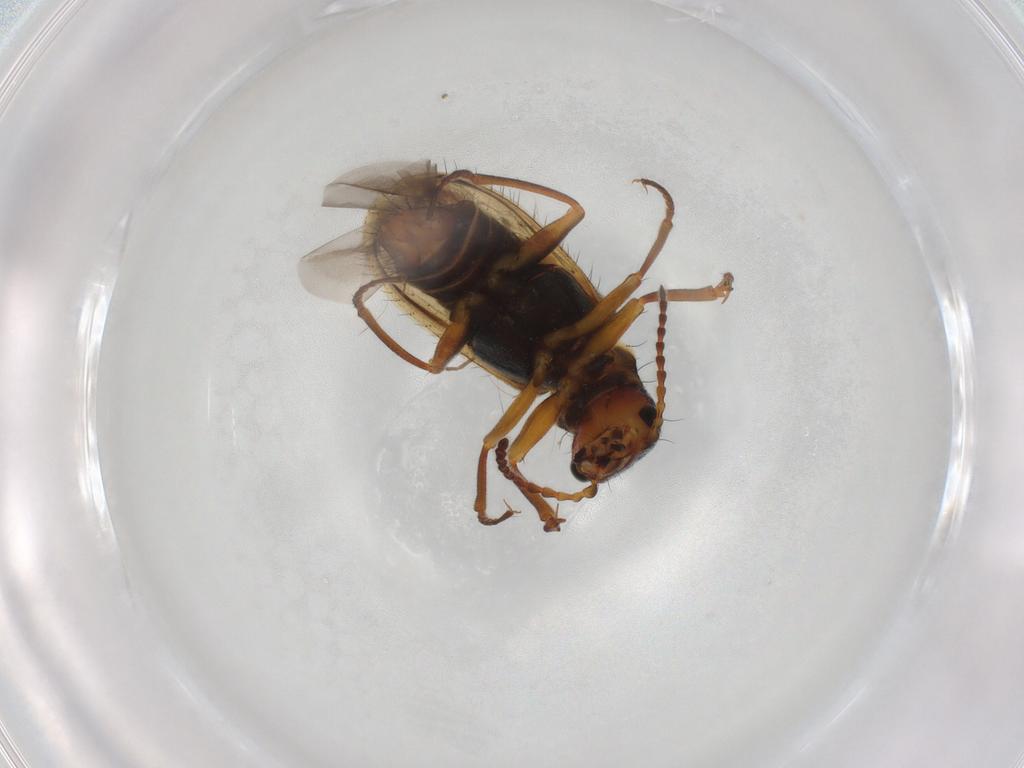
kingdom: Animalia
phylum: Arthropoda
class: Insecta
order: Coleoptera
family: Melyridae
